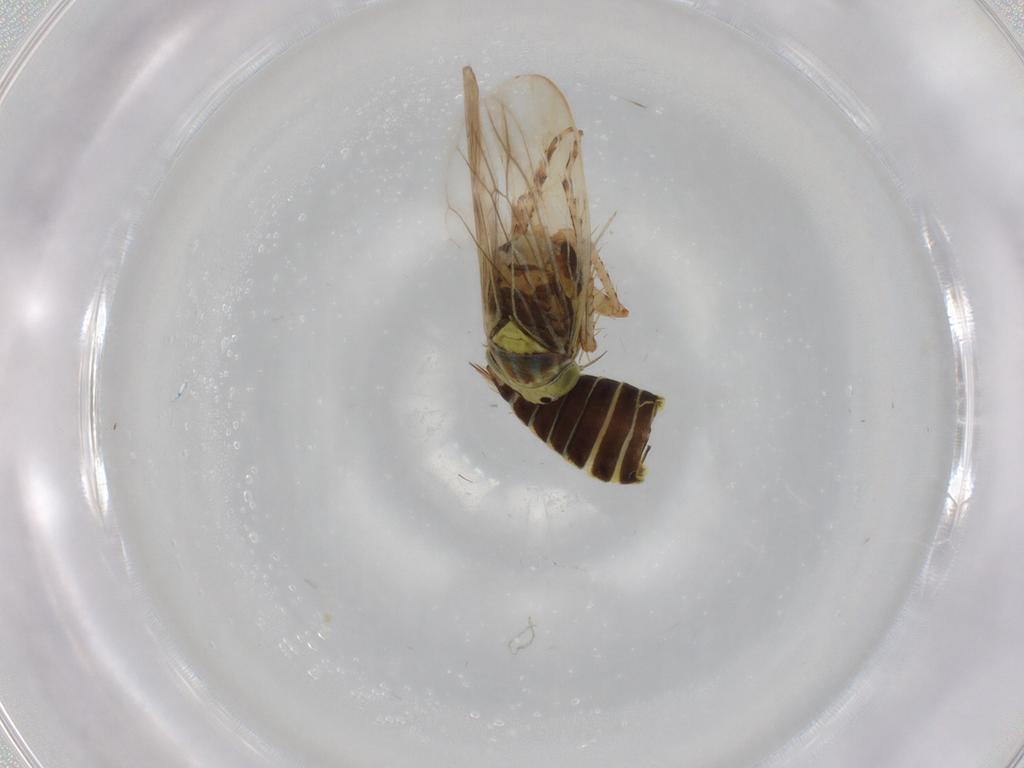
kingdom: Animalia
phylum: Arthropoda
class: Insecta
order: Hemiptera
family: Cicadellidae
